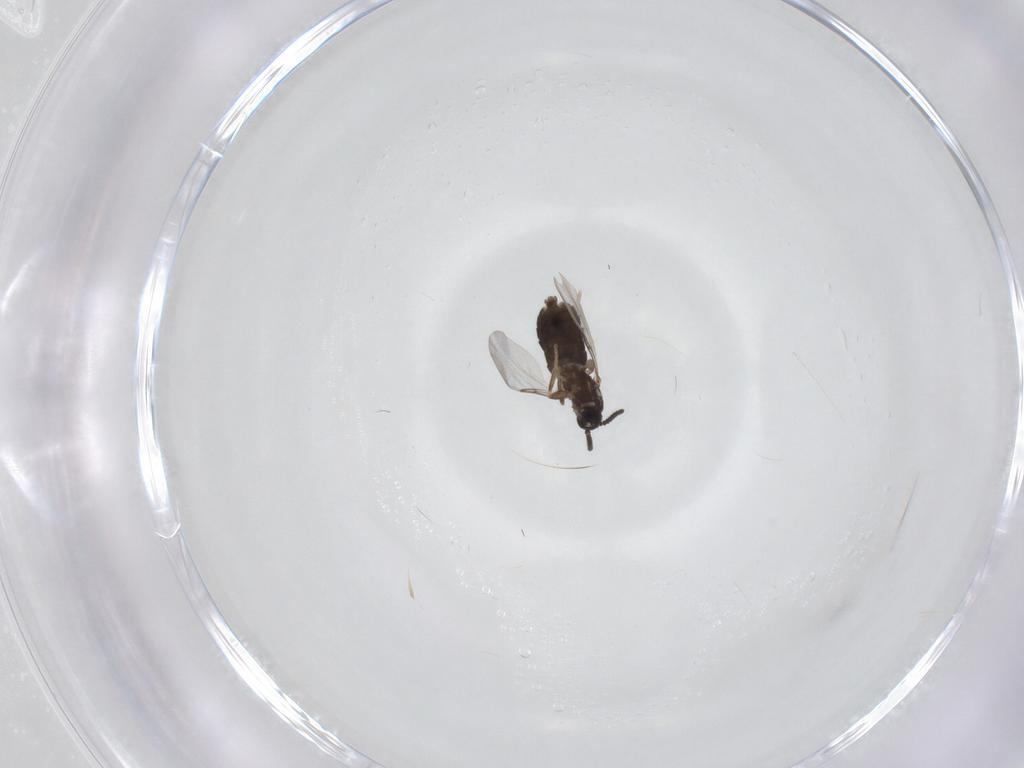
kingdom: Animalia
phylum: Arthropoda
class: Insecta
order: Diptera
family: Scatopsidae
